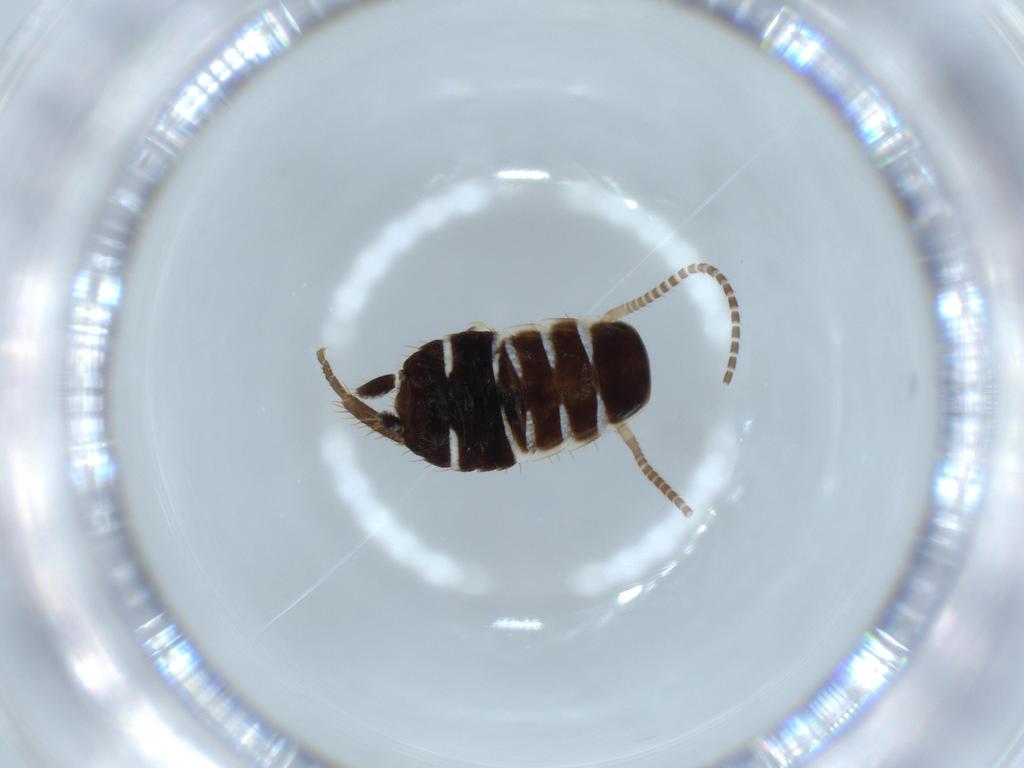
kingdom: Animalia
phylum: Arthropoda
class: Insecta
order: Blattodea
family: Ectobiidae
